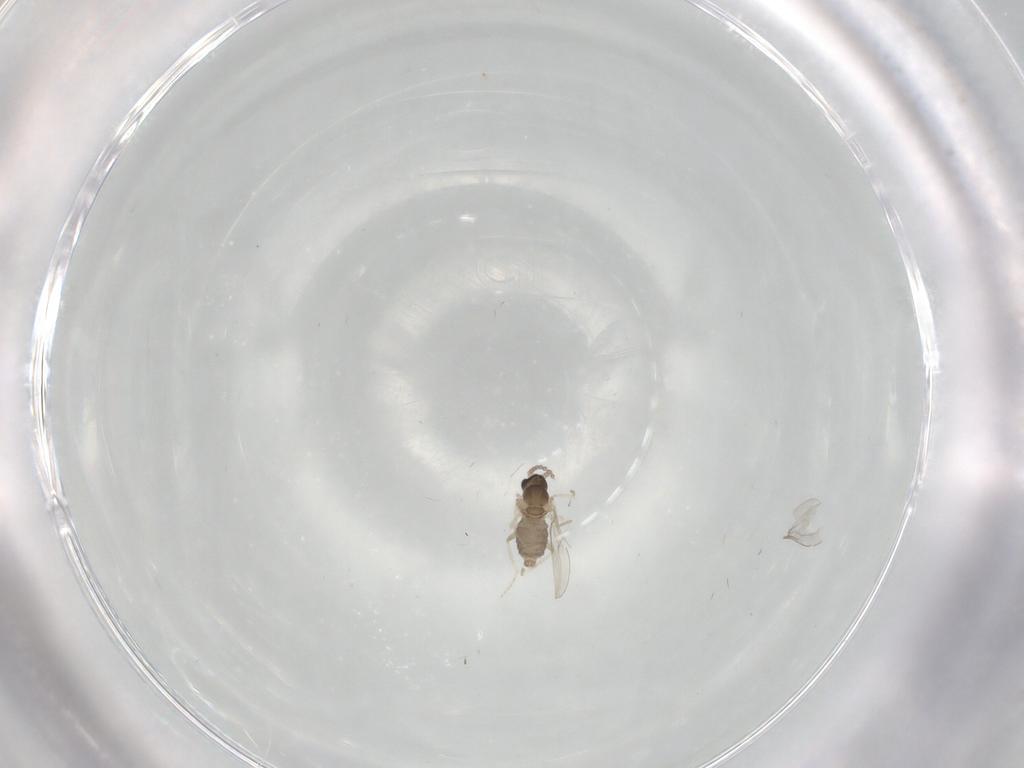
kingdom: Animalia
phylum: Arthropoda
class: Insecta
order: Diptera
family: Cecidomyiidae
